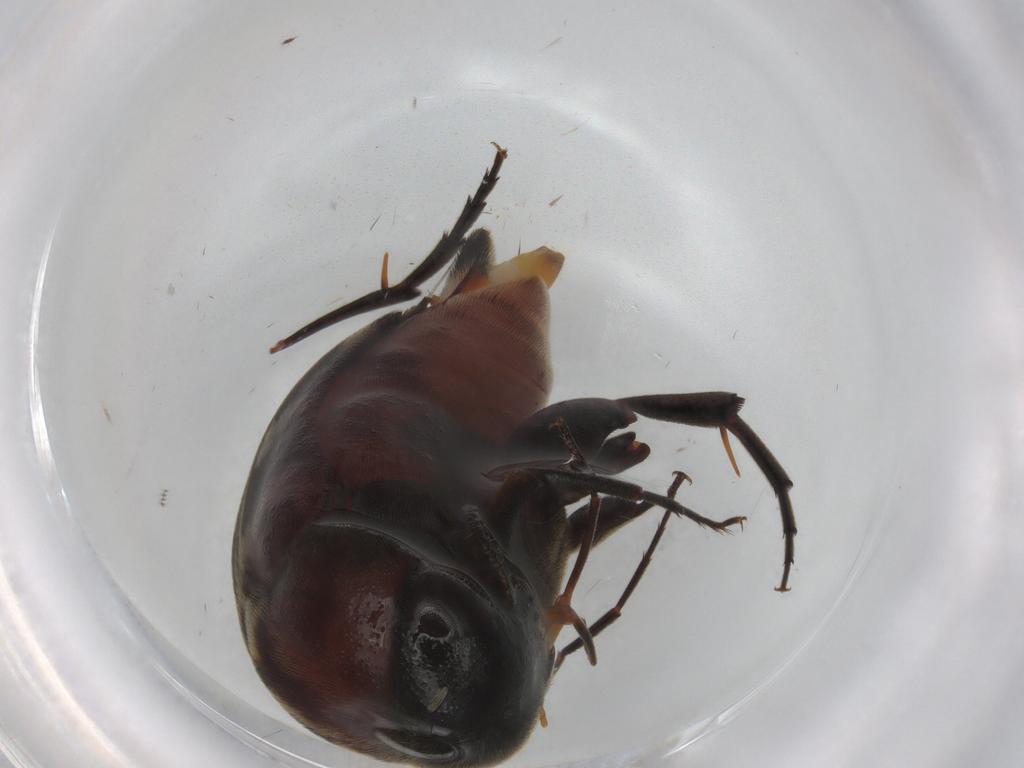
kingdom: Animalia
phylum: Arthropoda
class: Insecta
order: Coleoptera
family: Mordellidae
